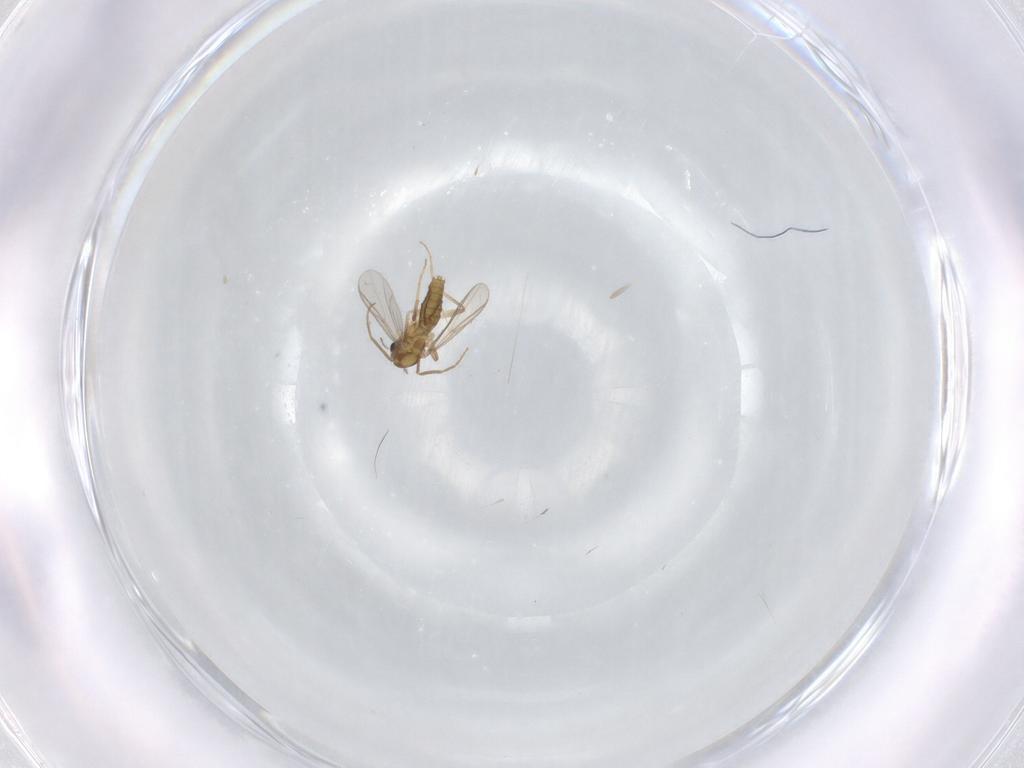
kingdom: Animalia
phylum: Arthropoda
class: Insecta
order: Diptera
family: Chironomidae
